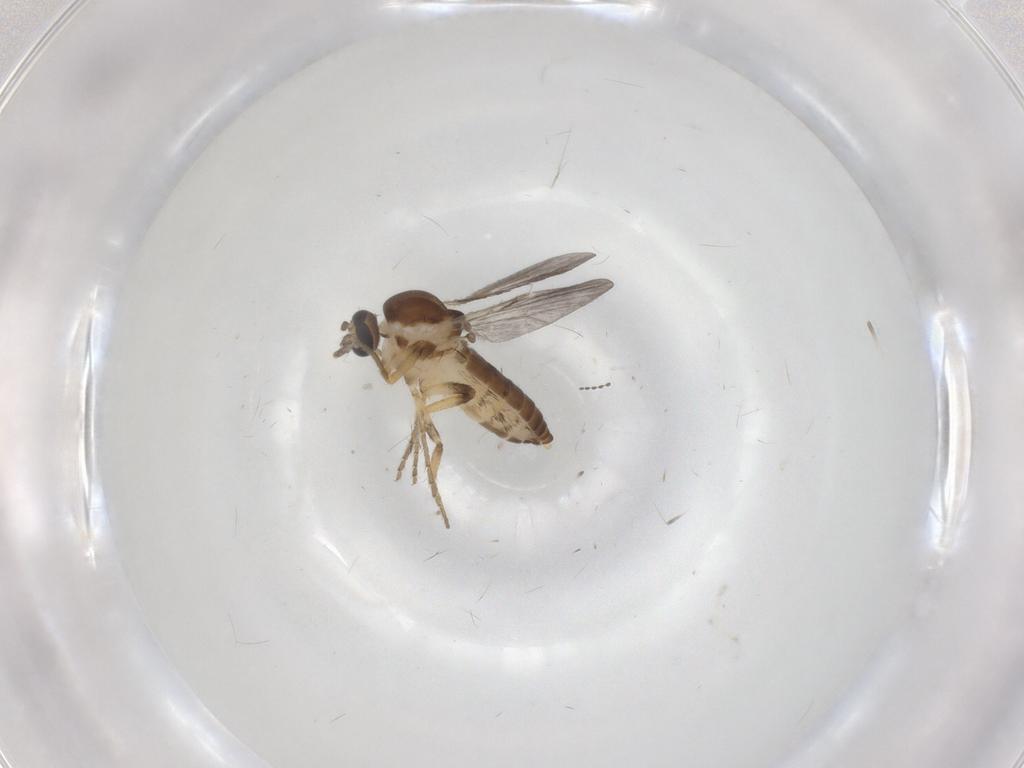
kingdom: Animalia
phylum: Arthropoda
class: Insecta
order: Diptera
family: Ceratopogonidae
